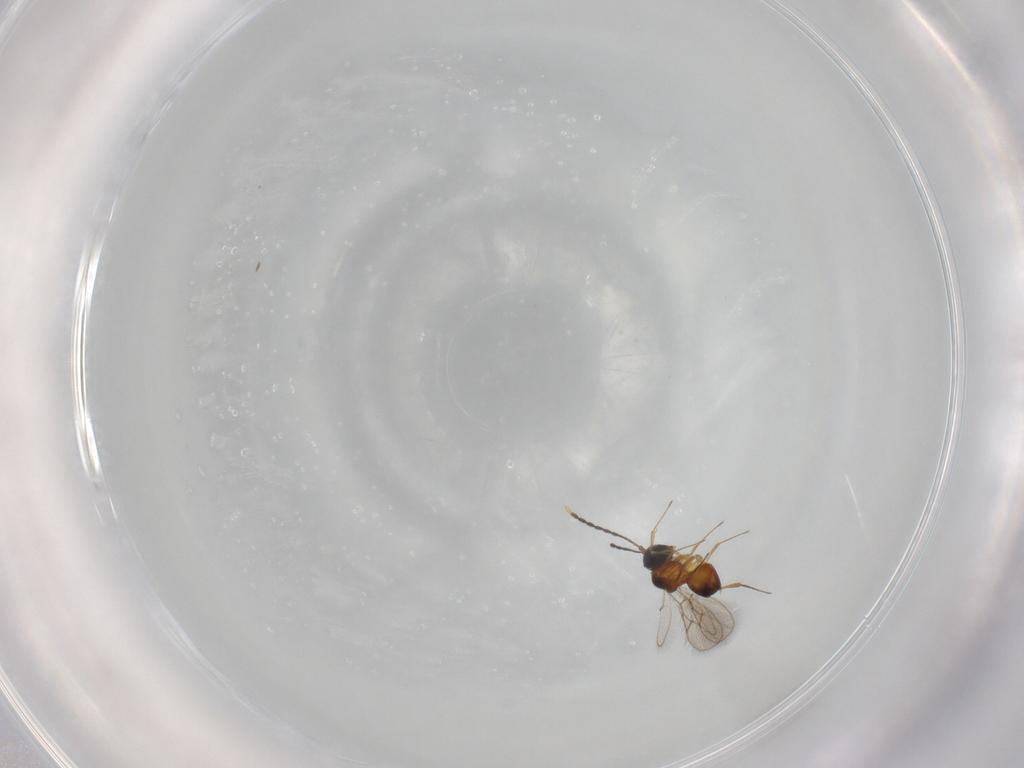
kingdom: Animalia
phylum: Arthropoda
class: Insecta
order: Hymenoptera
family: Figitidae
